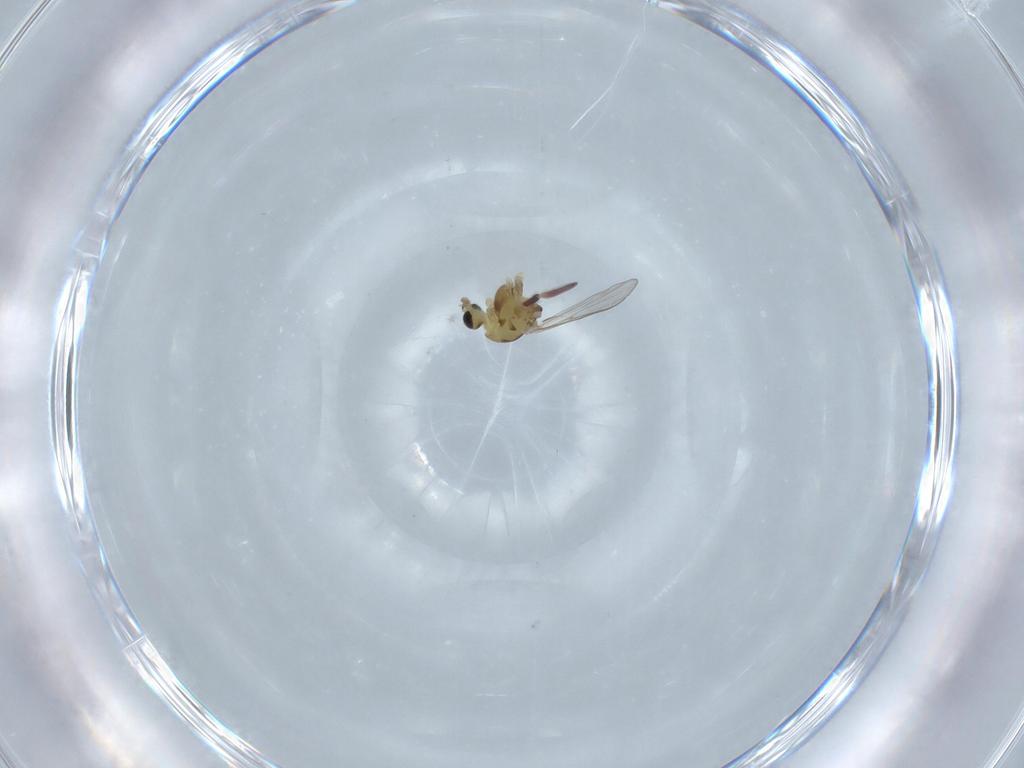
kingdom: Animalia
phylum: Arthropoda
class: Insecta
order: Diptera
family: Chironomidae
